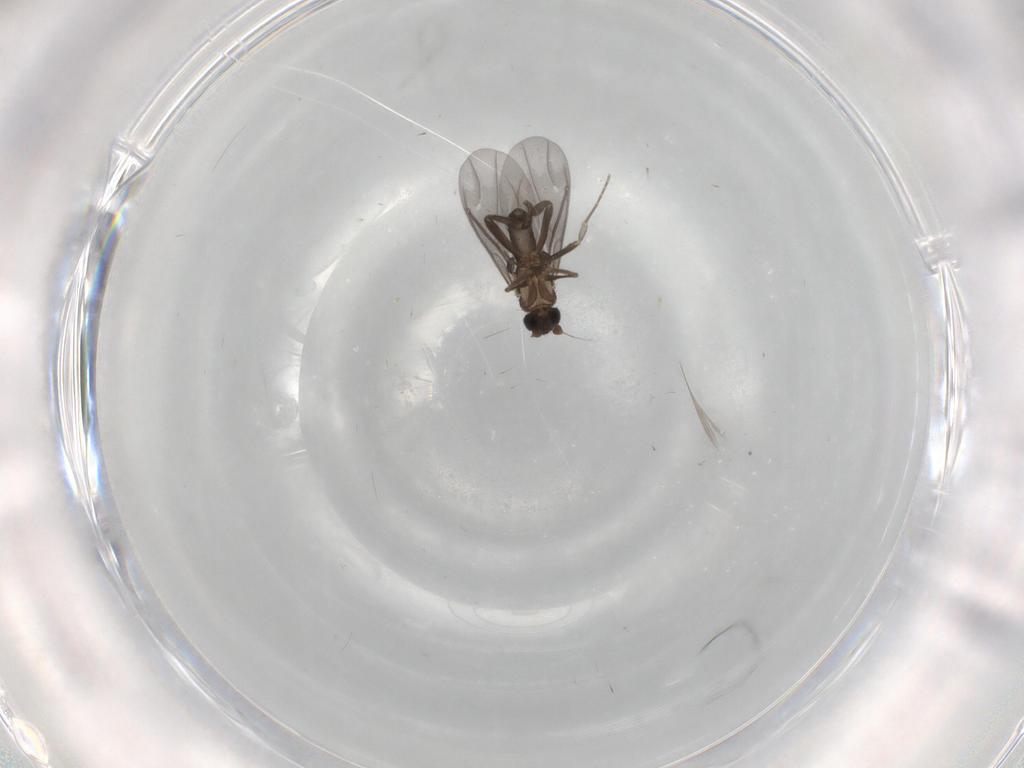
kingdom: Animalia
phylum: Arthropoda
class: Insecta
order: Diptera
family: Phoridae
